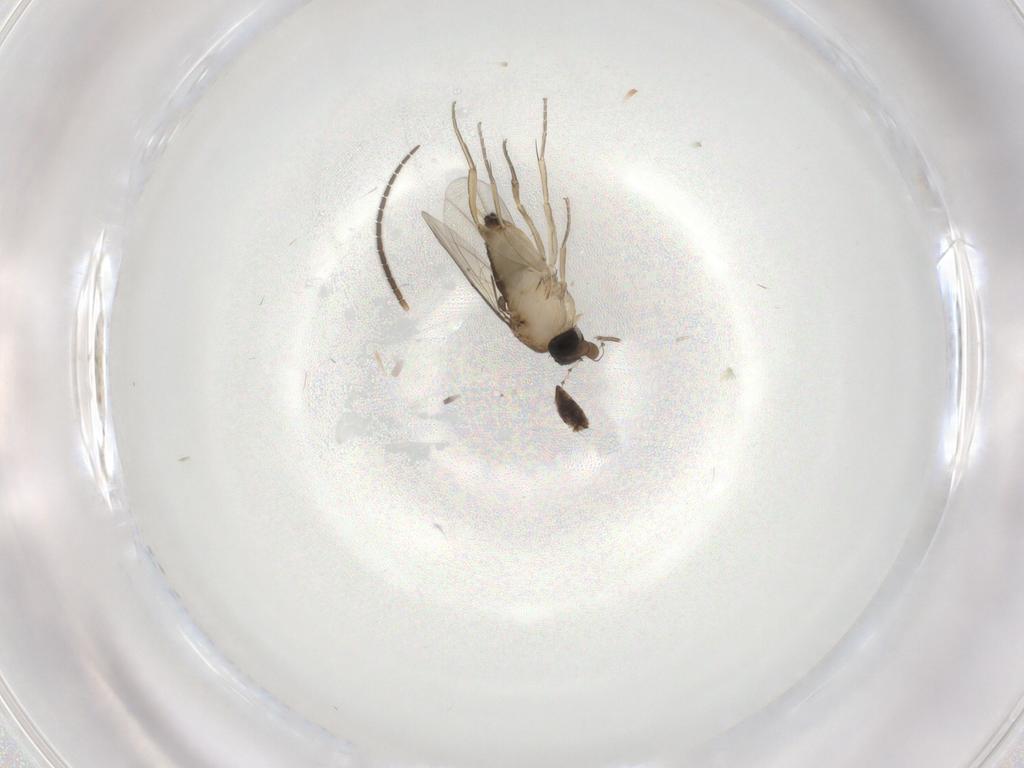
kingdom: Animalia
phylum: Arthropoda
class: Insecta
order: Diptera
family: Phoridae
